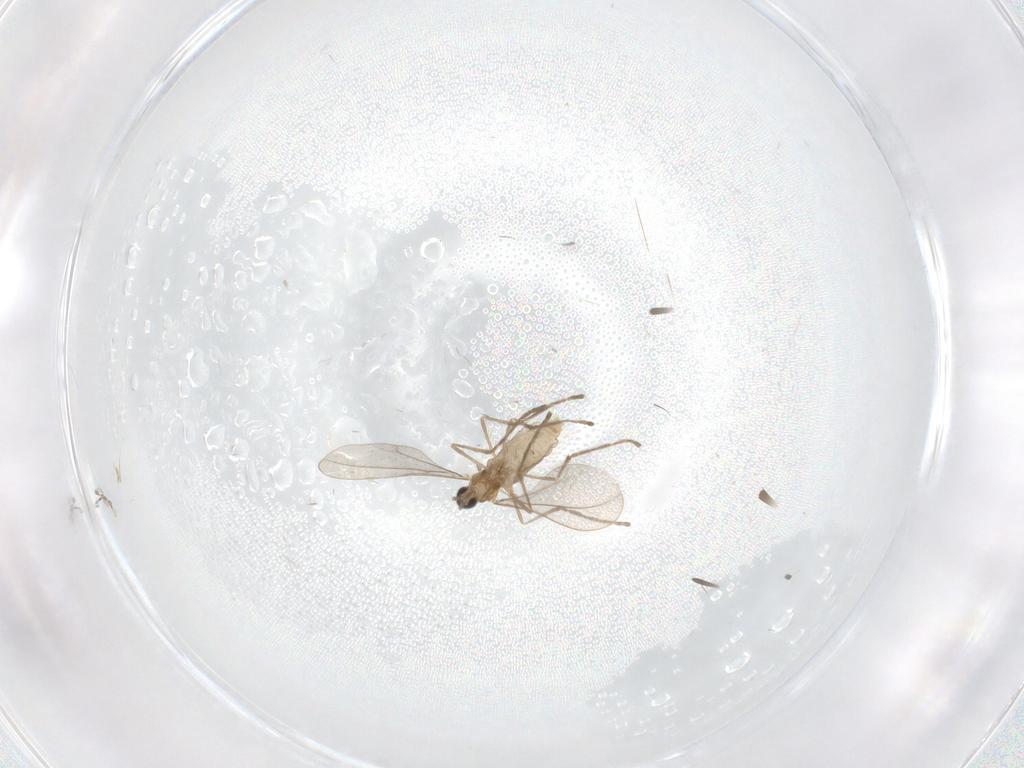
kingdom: Animalia
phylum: Arthropoda
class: Insecta
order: Diptera
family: Cecidomyiidae
